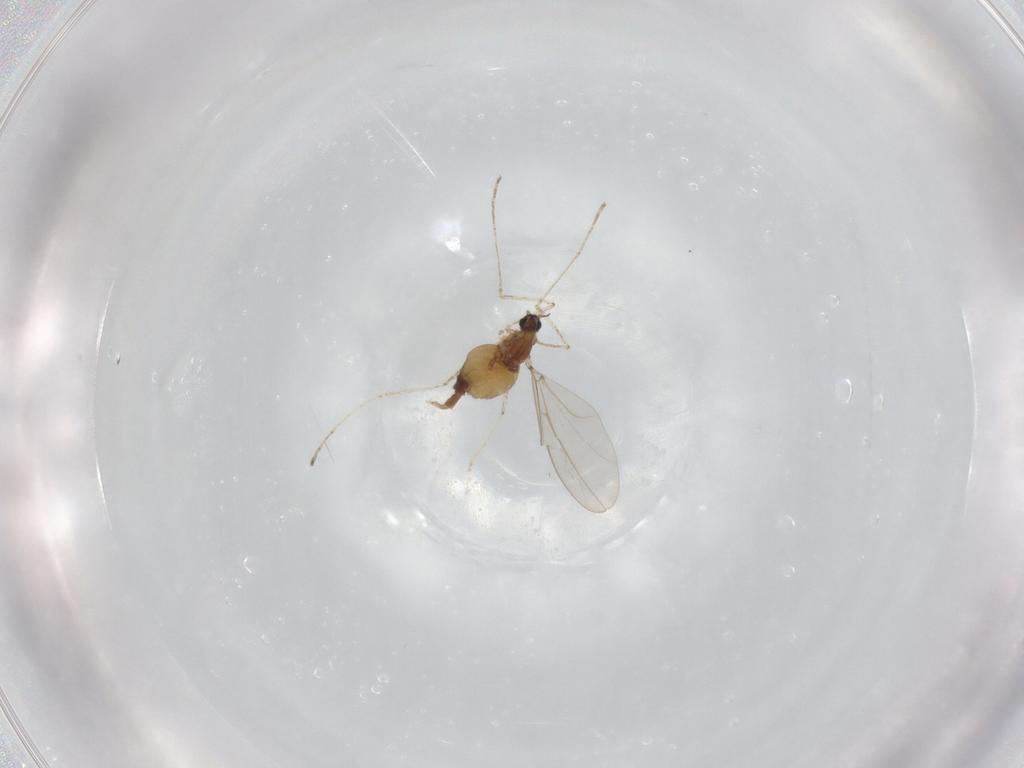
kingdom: Animalia
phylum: Arthropoda
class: Insecta
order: Diptera
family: Cecidomyiidae
